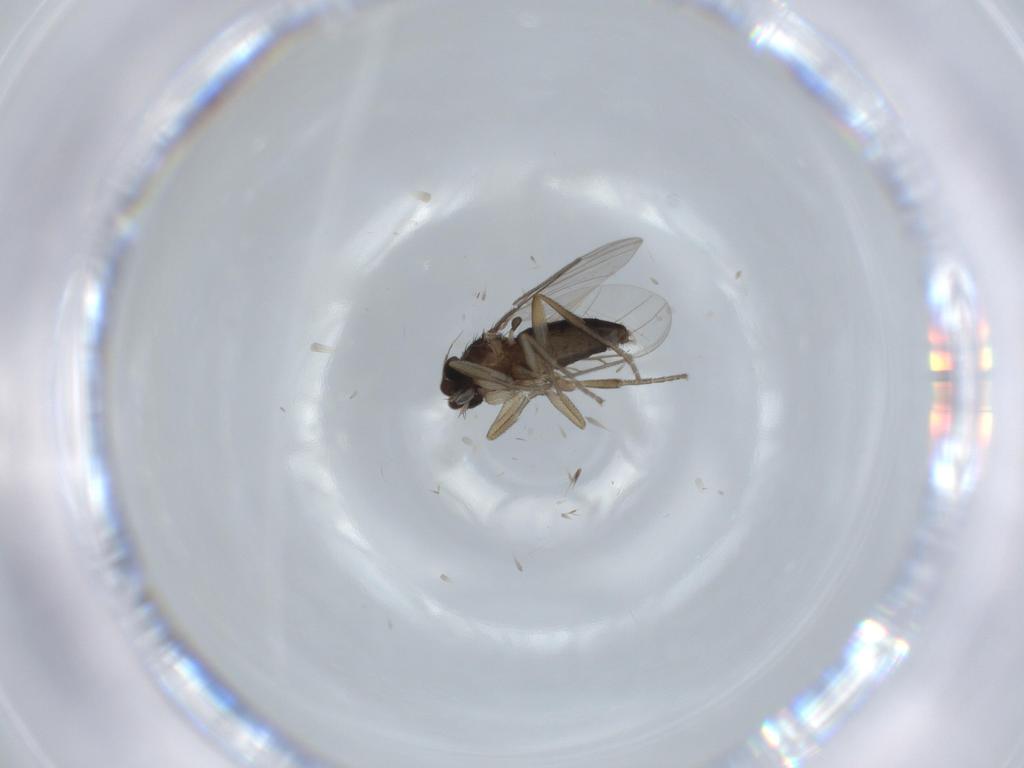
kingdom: Animalia
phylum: Arthropoda
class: Insecta
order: Diptera
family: Phoridae
